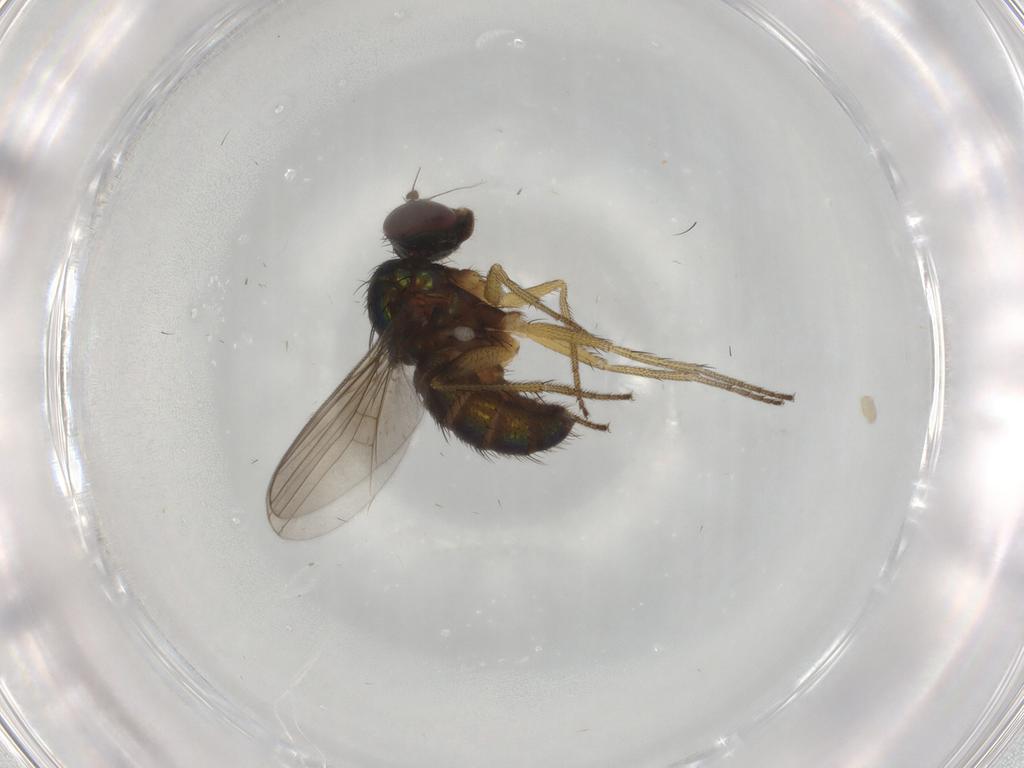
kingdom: Animalia
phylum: Arthropoda
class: Insecta
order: Diptera
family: Dolichopodidae
